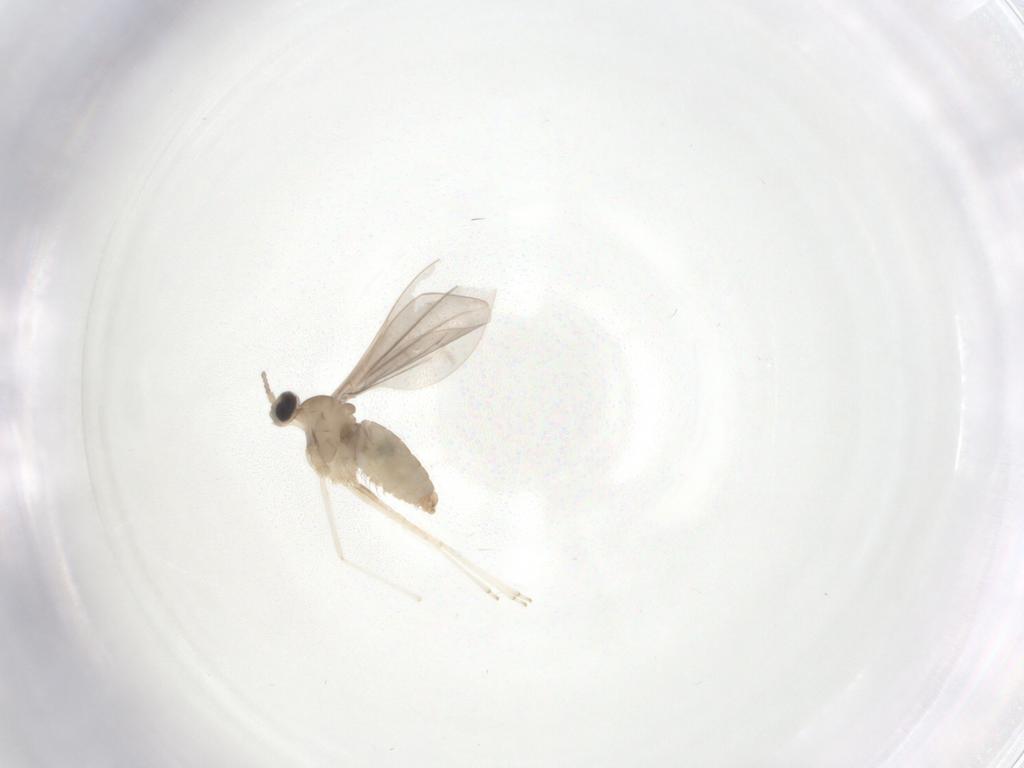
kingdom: Animalia
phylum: Arthropoda
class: Insecta
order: Diptera
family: Cecidomyiidae
